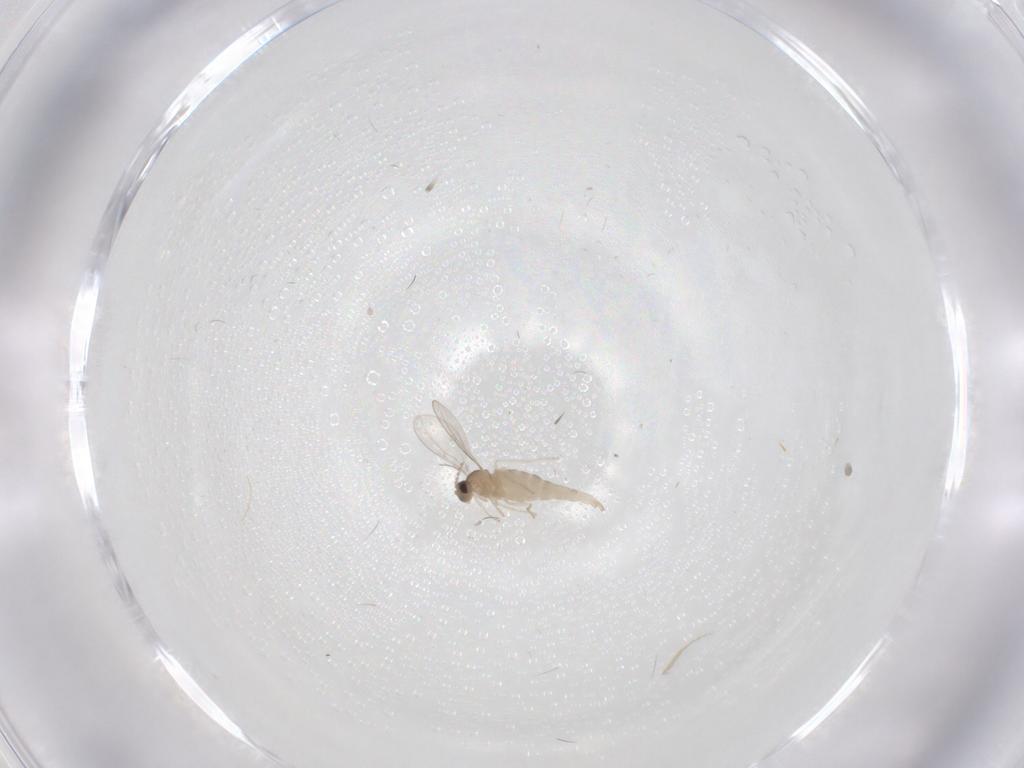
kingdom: Animalia
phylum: Arthropoda
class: Insecta
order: Diptera
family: Cecidomyiidae
